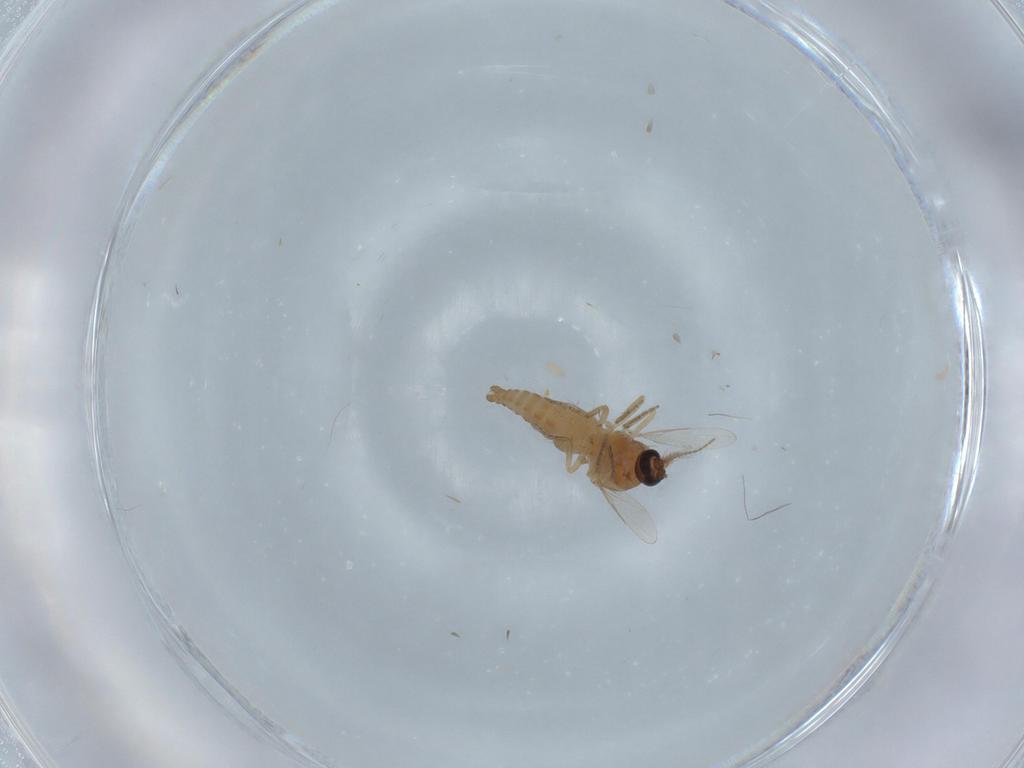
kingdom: Animalia
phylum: Arthropoda
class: Insecta
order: Diptera
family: Ceratopogonidae
